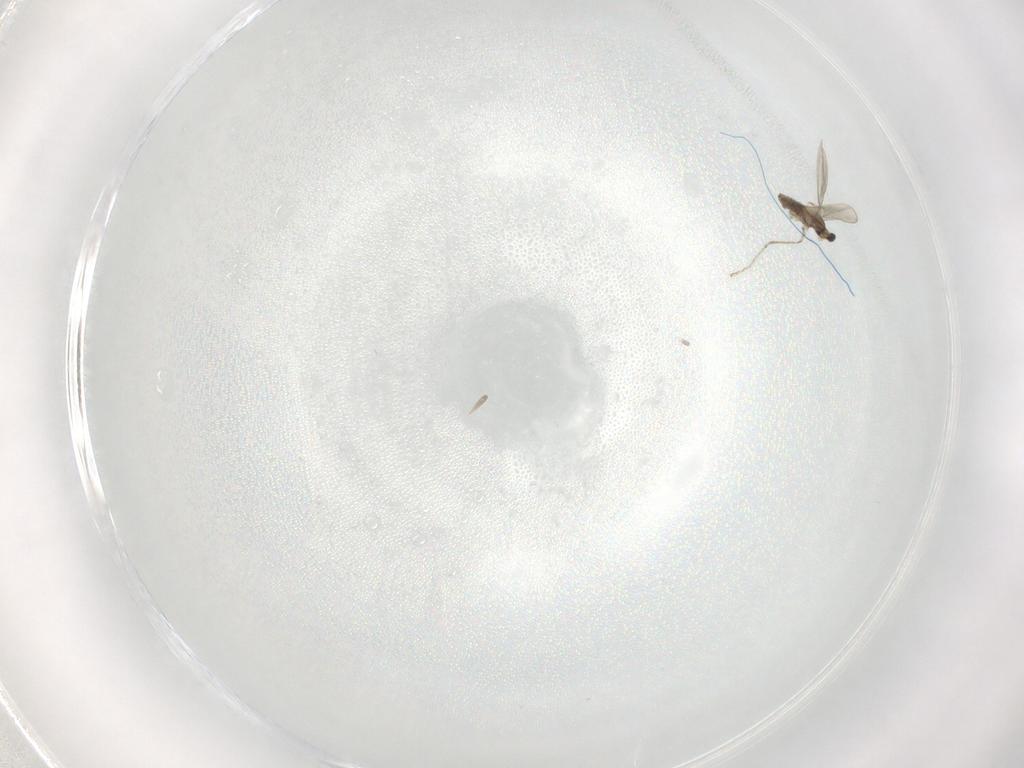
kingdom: Animalia
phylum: Arthropoda
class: Insecta
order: Diptera
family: Cecidomyiidae
